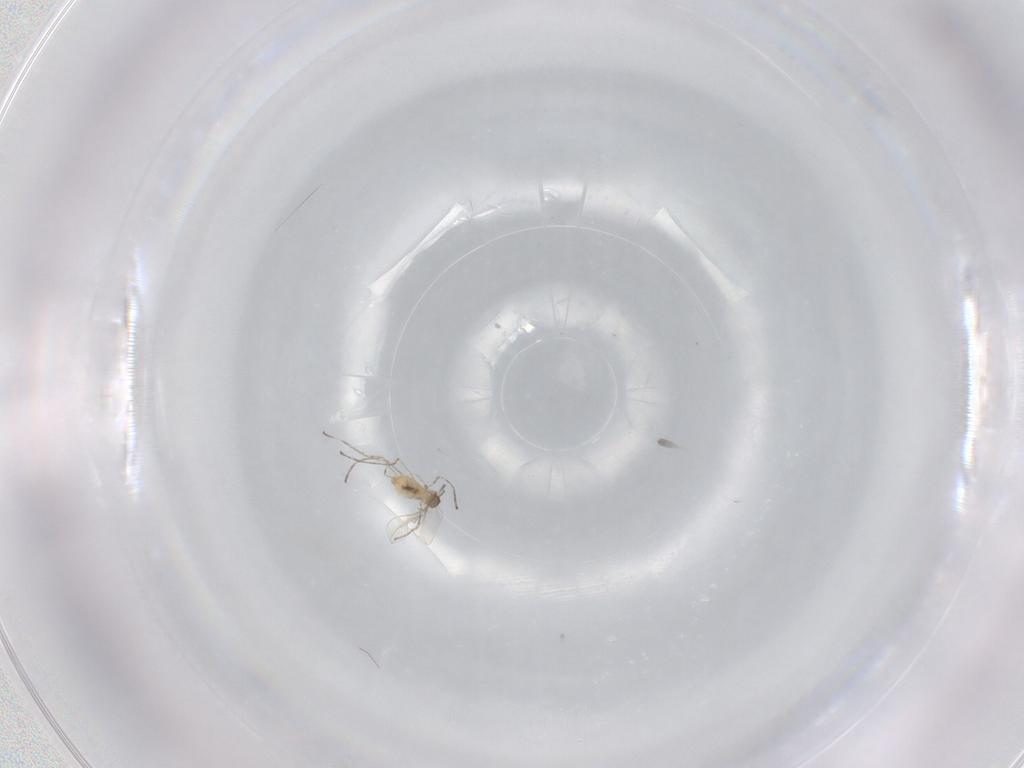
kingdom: Animalia
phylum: Arthropoda
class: Insecta
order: Diptera
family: Cecidomyiidae
